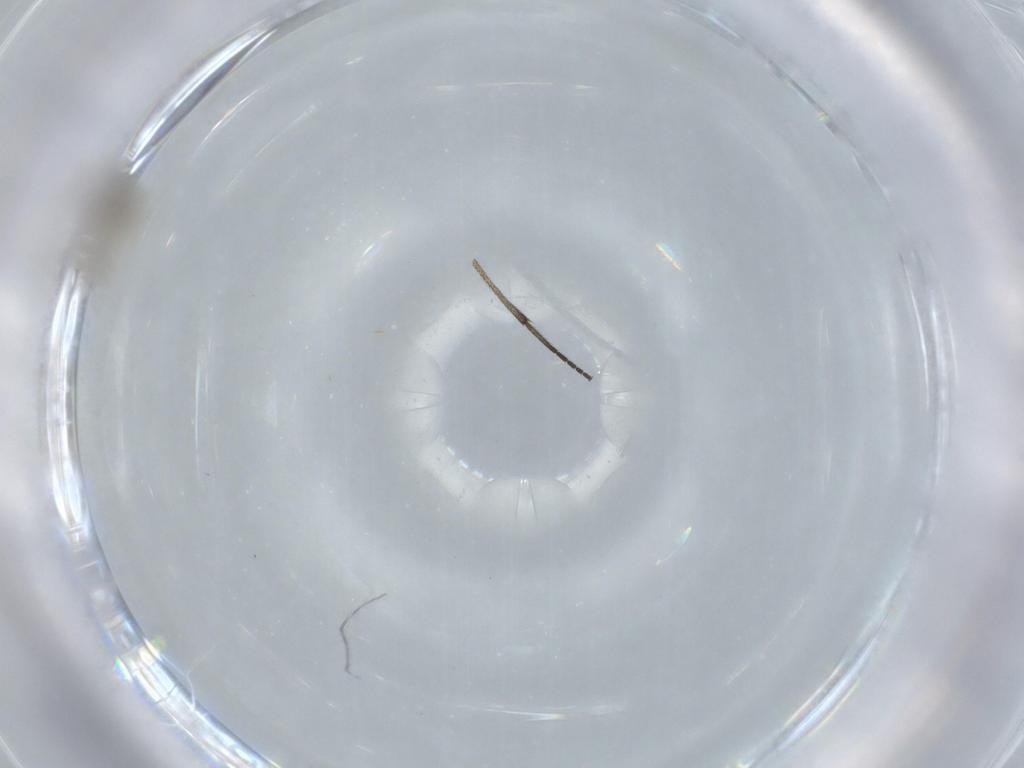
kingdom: Animalia
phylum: Arthropoda
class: Insecta
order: Diptera
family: Cecidomyiidae
